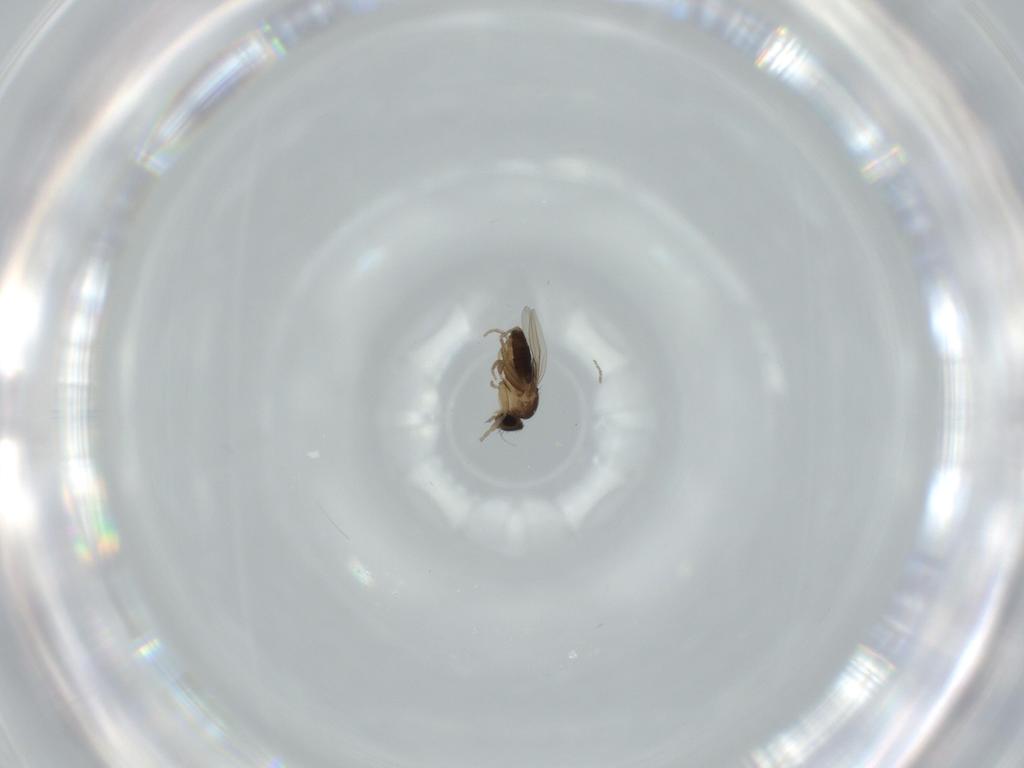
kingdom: Animalia
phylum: Arthropoda
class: Insecta
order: Diptera
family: Phoridae
